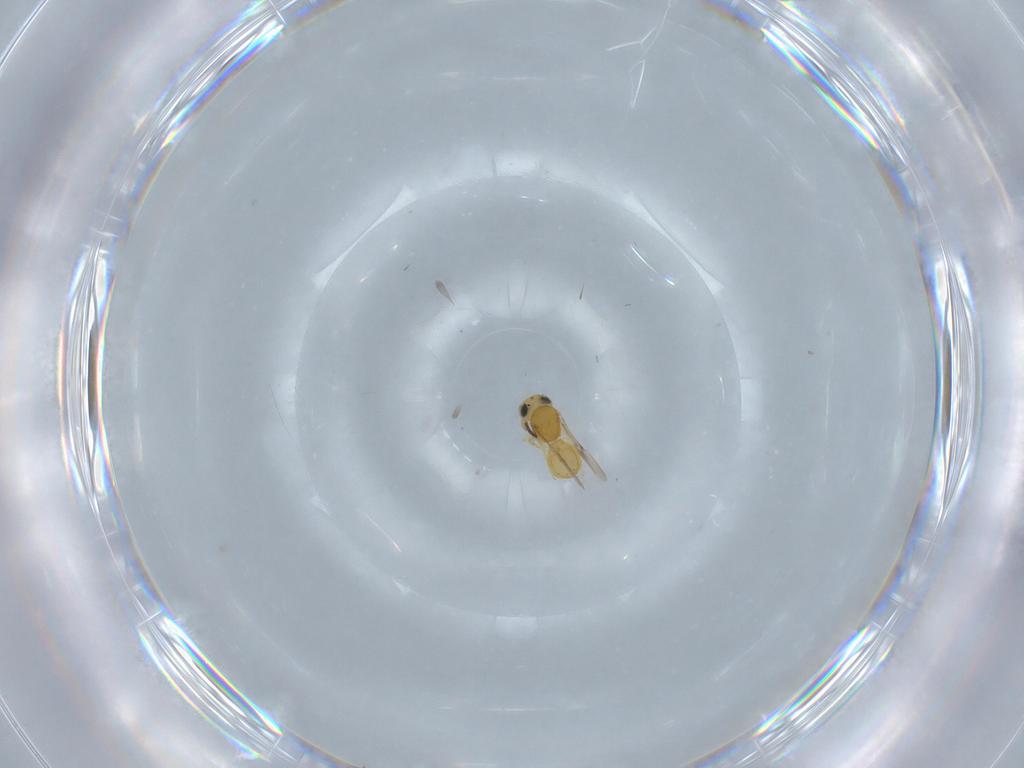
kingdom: Animalia
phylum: Arthropoda
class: Insecta
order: Hymenoptera
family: Scelionidae
